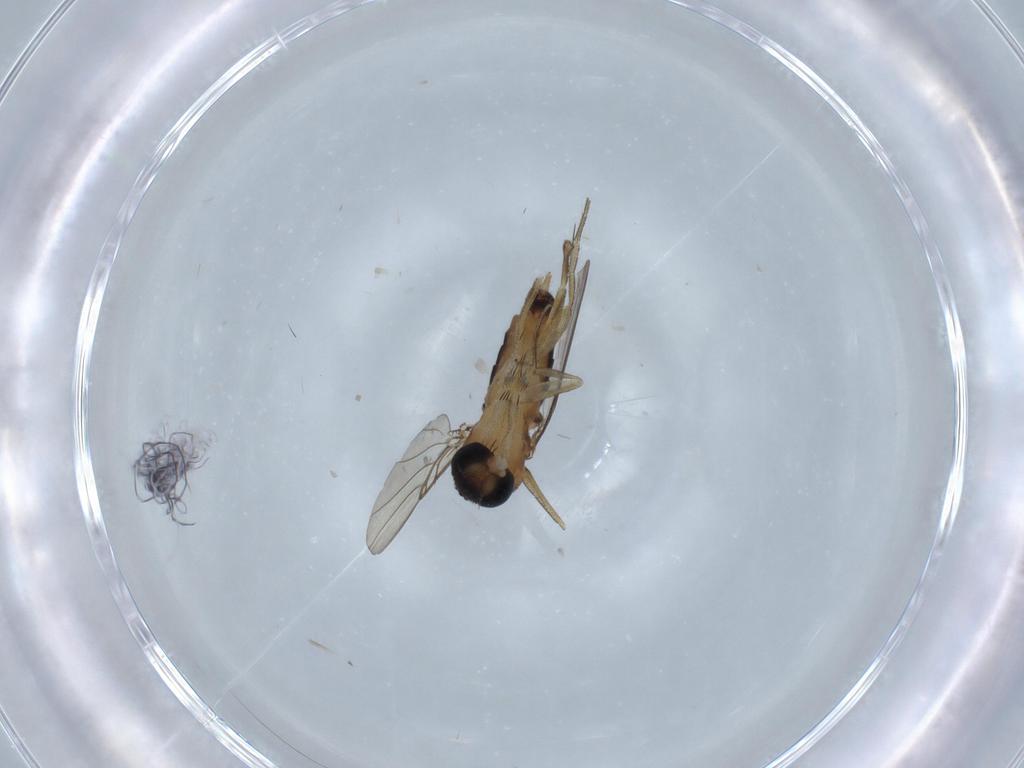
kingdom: Animalia
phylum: Arthropoda
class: Insecta
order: Diptera
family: Phoridae
